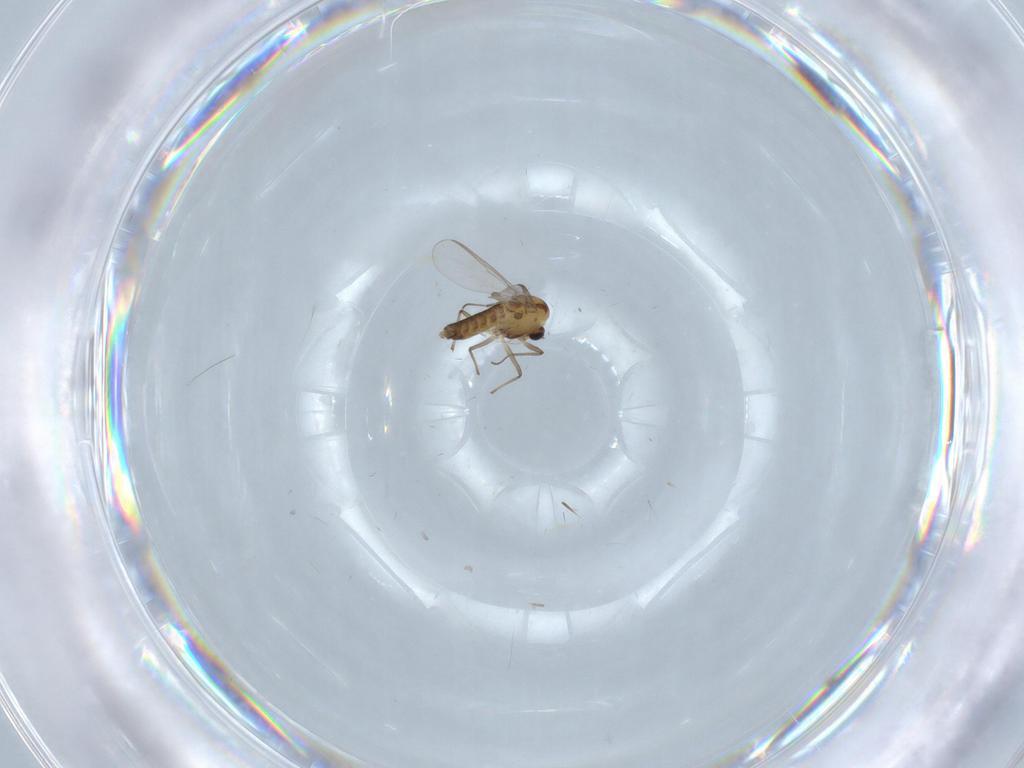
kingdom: Animalia
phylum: Arthropoda
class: Insecta
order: Diptera
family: Chironomidae
